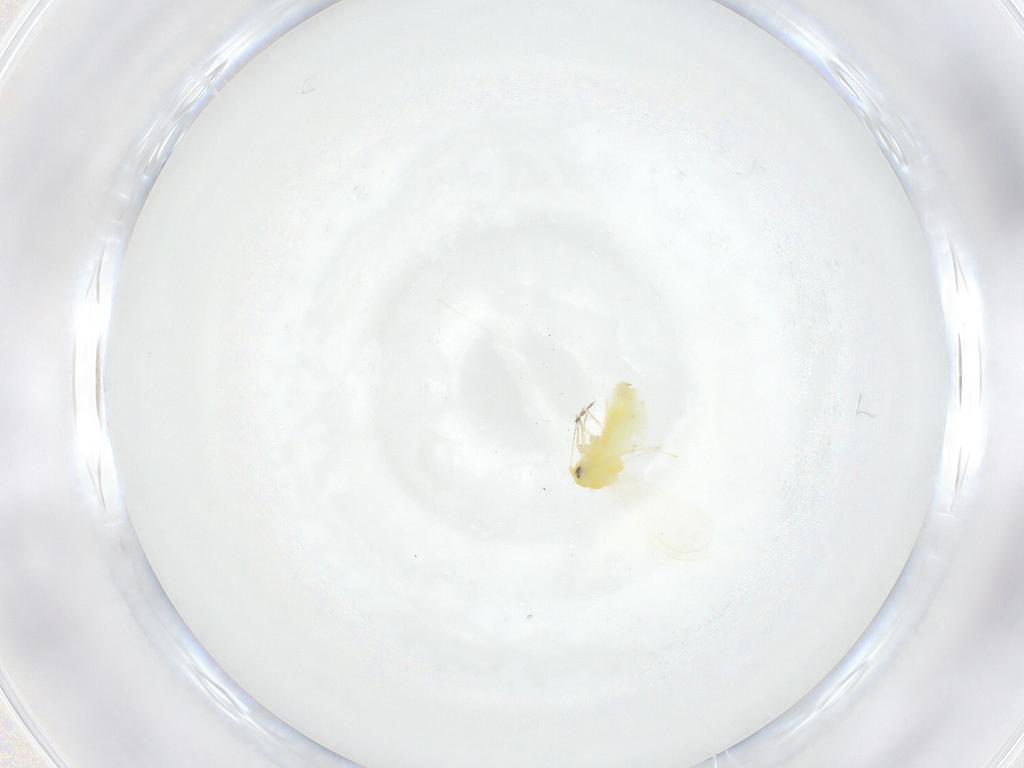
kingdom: Animalia
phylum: Arthropoda
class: Insecta
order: Hemiptera
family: Aleyrodidae
